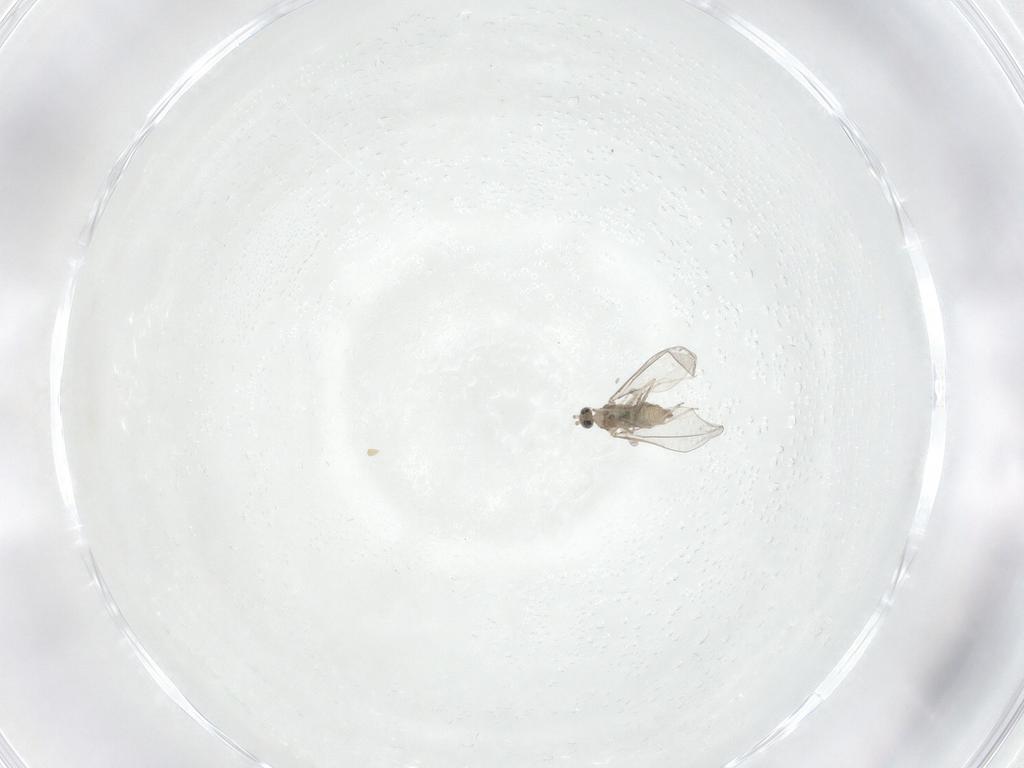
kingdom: Animalia
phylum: Arthropoda
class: Insecta
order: Diptera
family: Cecidomyiidae
